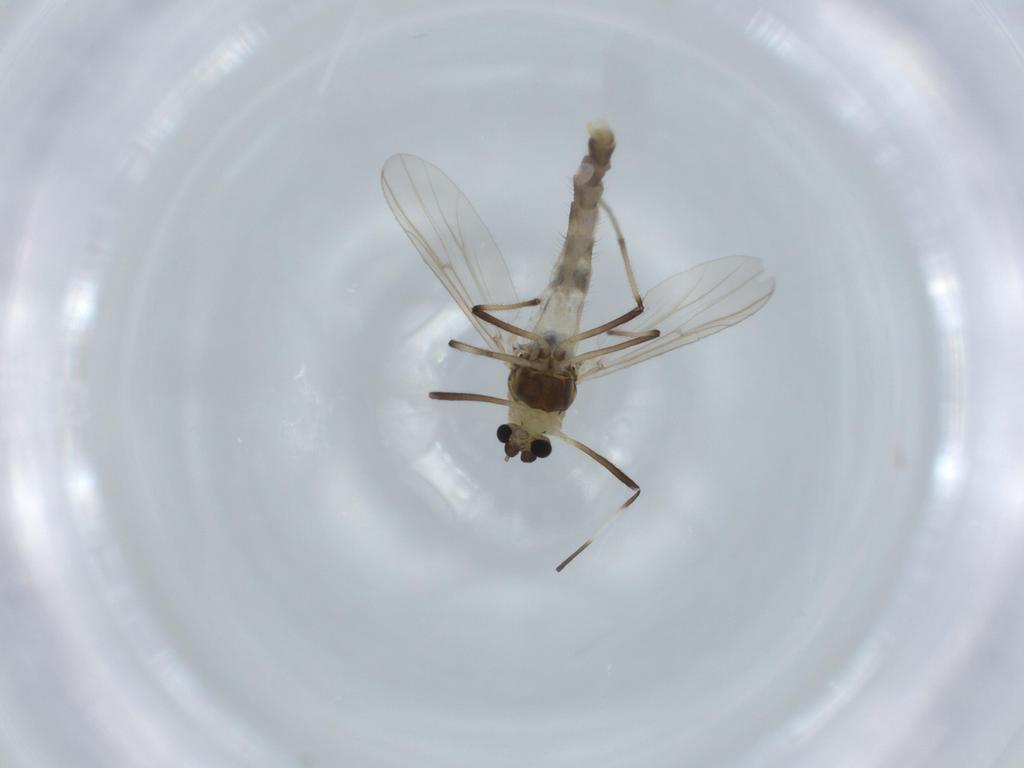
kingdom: Animalia
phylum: Arthropoda
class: Insecta
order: Diptera
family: Chironomidae
